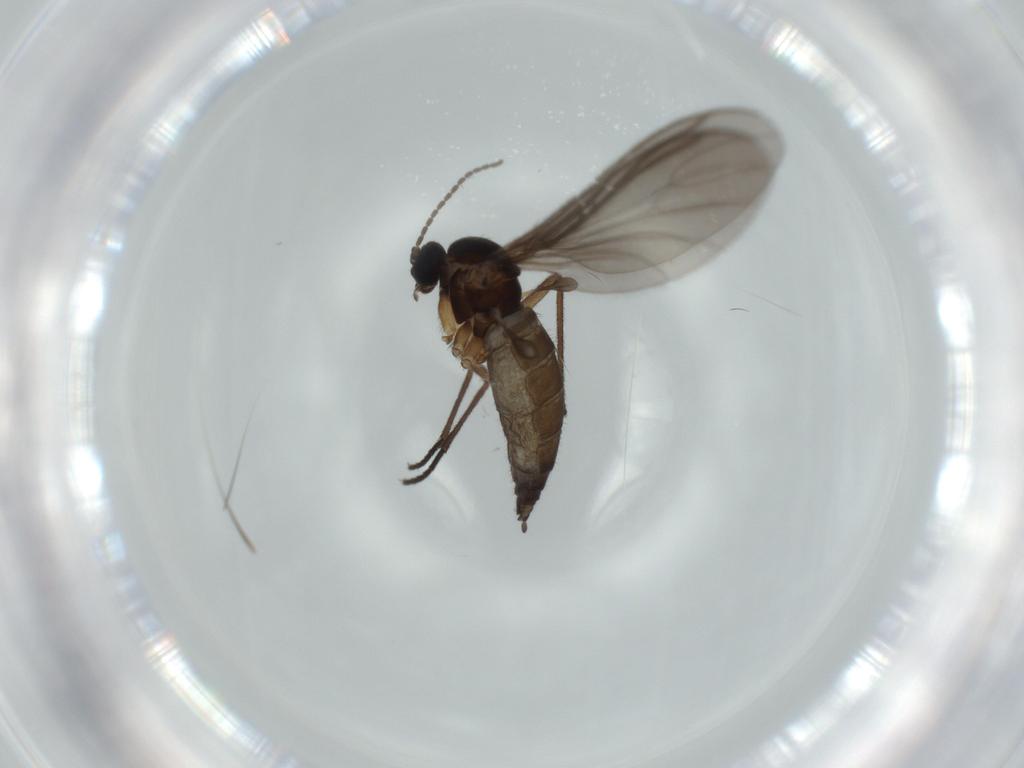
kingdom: Animalia
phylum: Arthropoda
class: Insecta
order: Diptera
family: Sciaridae
